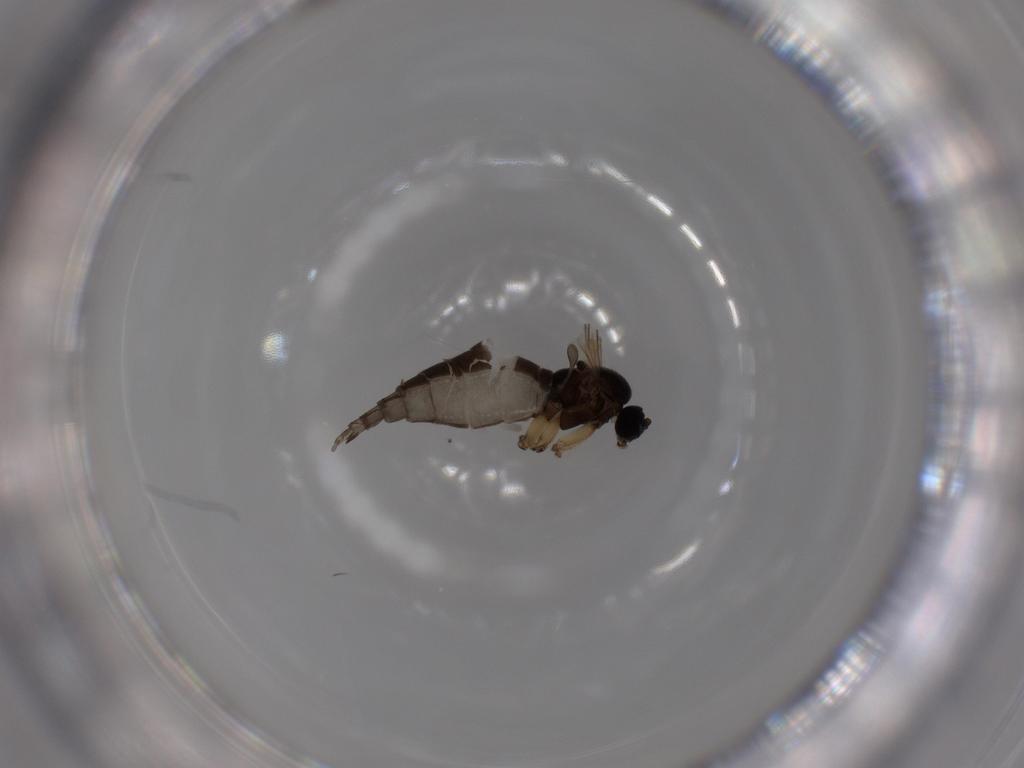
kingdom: Animalia
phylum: Arthropoda
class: Insecta
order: Diptera
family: Sciaridae
